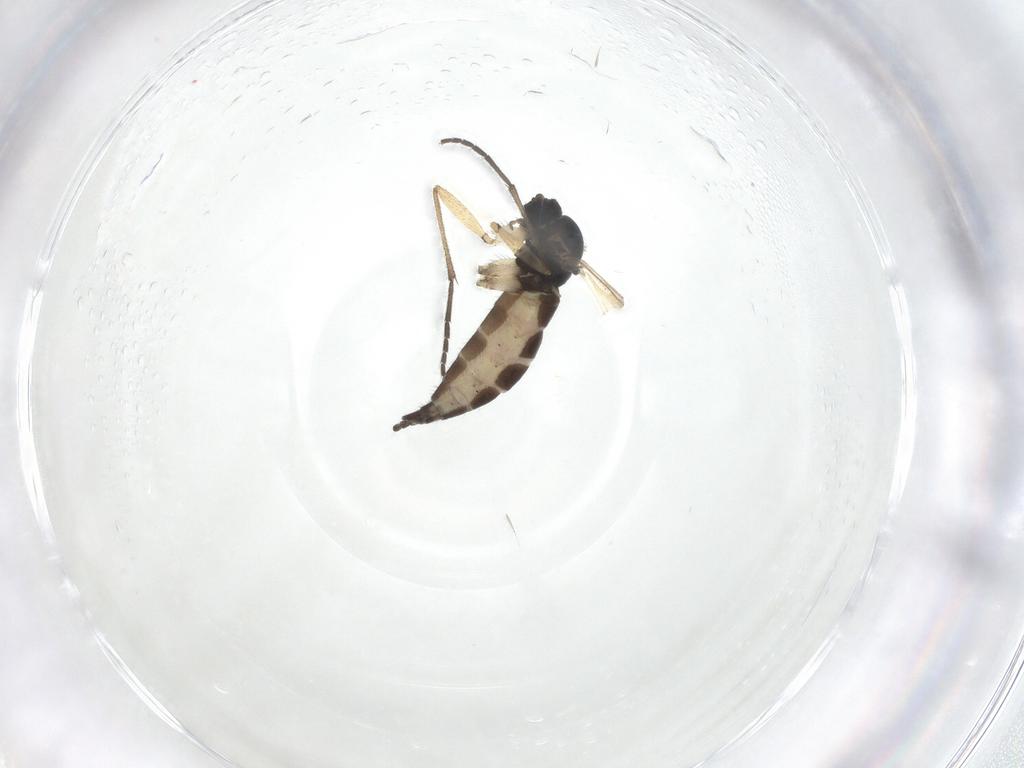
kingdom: Animalia
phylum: Arthropoda
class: Insecta
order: Diptera
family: Sciaridae
